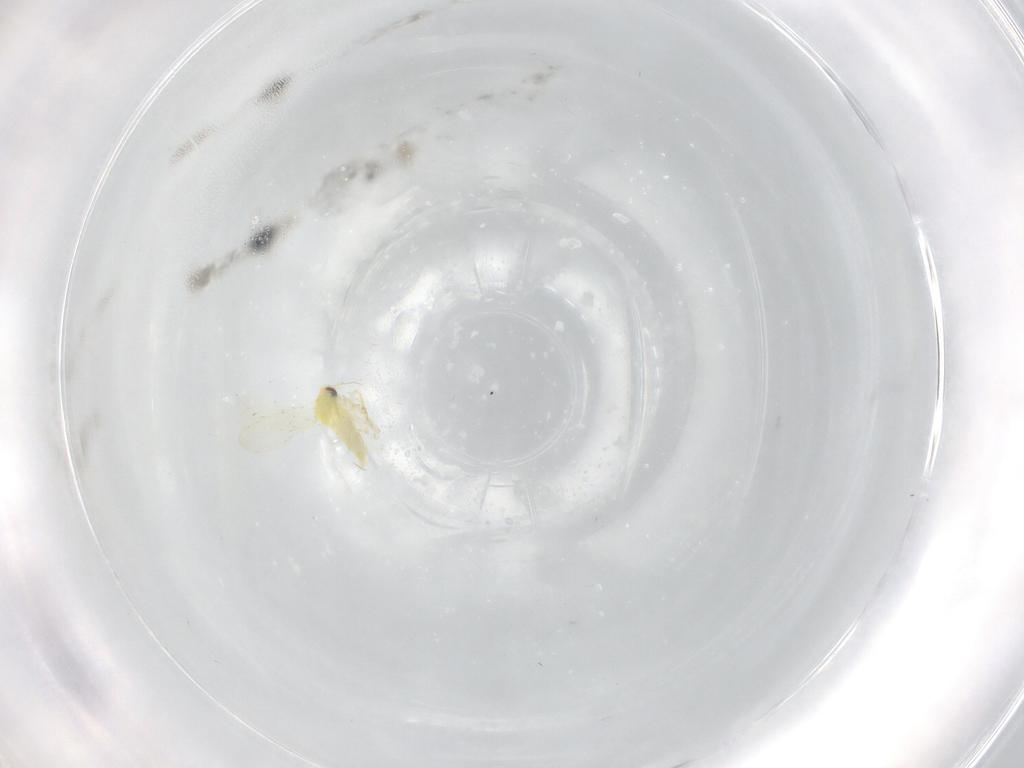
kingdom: Animalia
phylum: Arthropoda
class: Insecta
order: Hemiptera
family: Aleyrodidae
